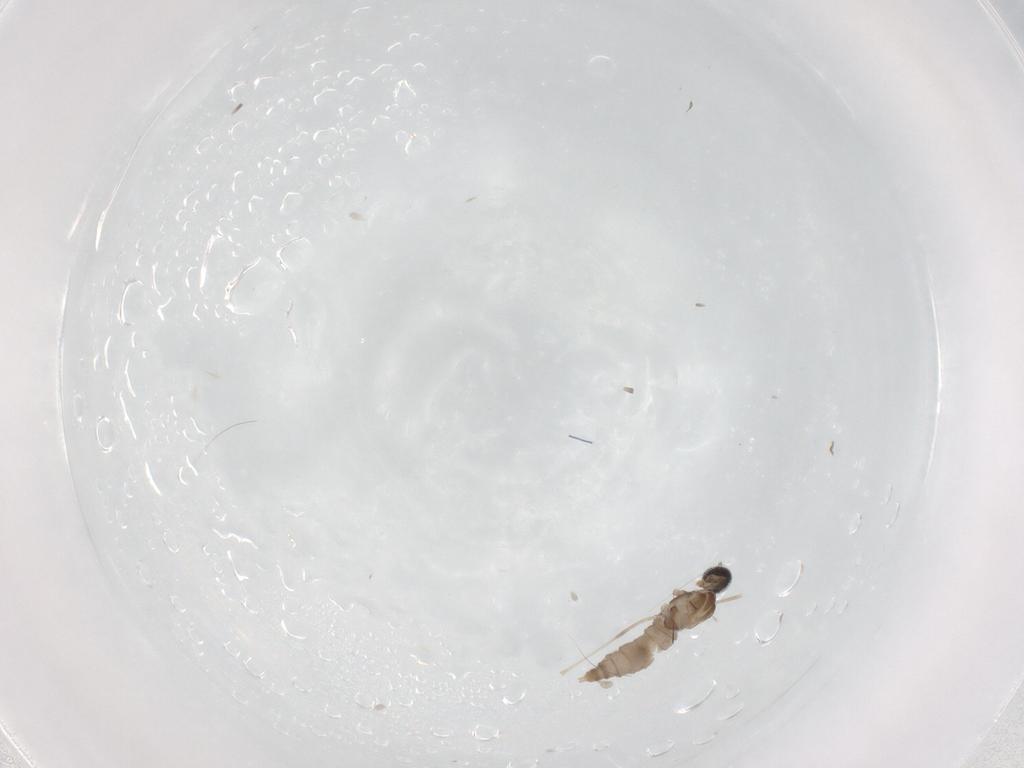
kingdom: Animalia
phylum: Arthropoda
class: Insecta
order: Diptera
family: Cecidomyiidae
